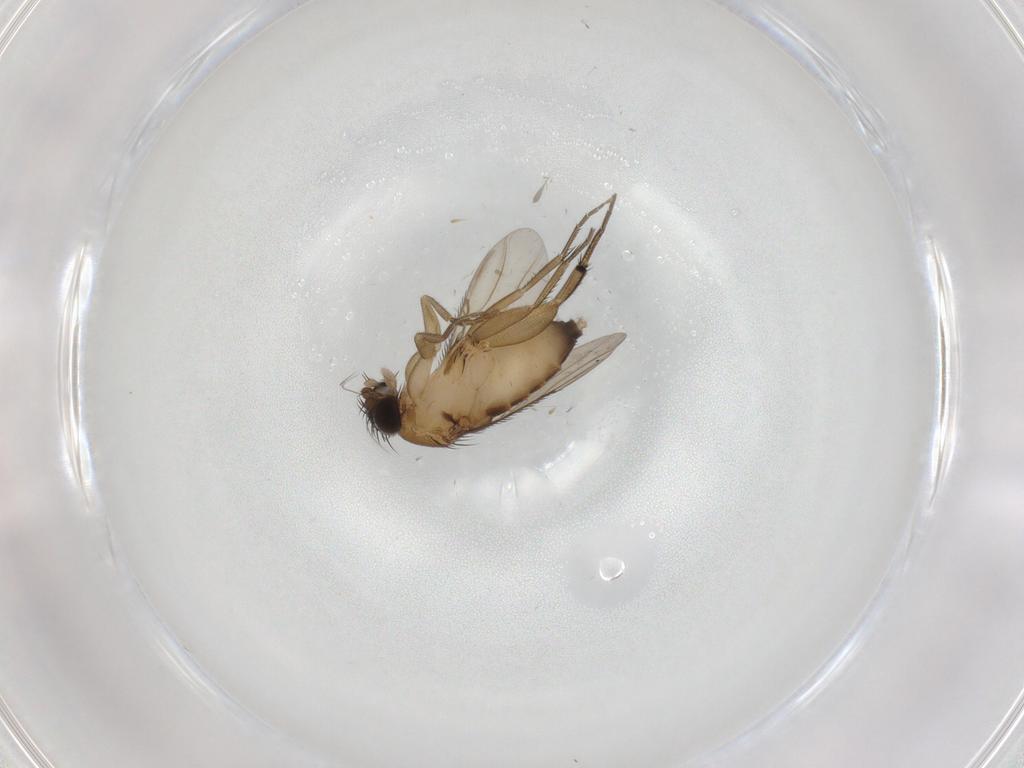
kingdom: Animalia
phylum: Arthropoda
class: Insecta
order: Diptera
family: Phoridae
